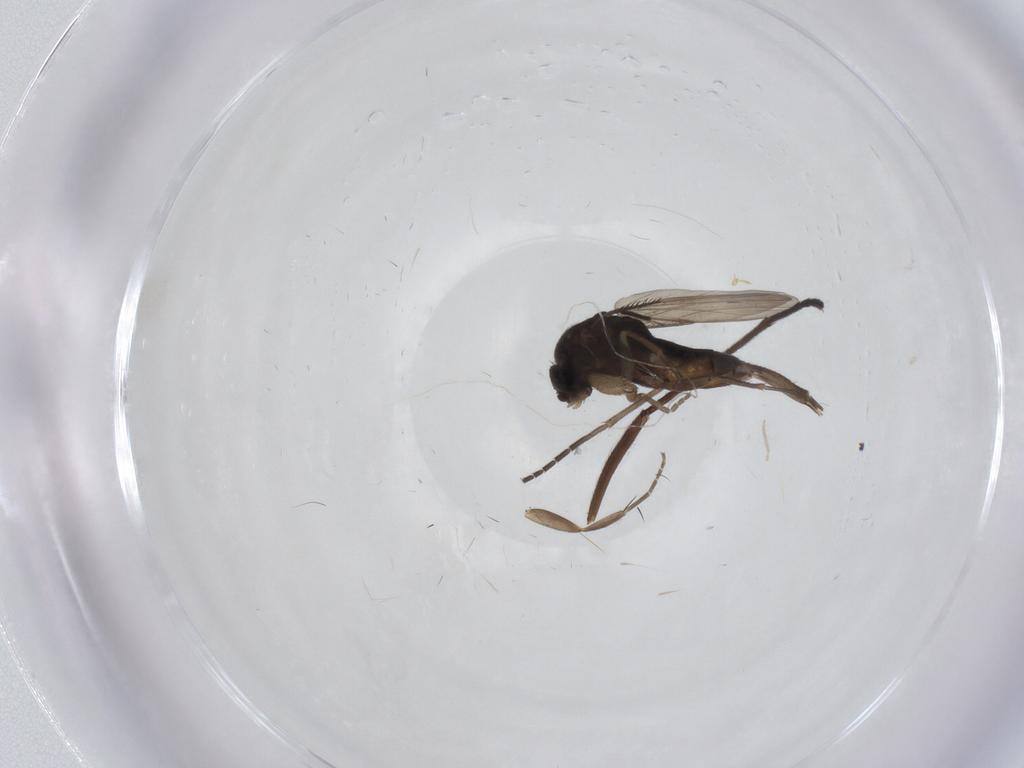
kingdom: Animalia
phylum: Arthropoda
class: Insecta
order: Diptera
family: Phoridae
